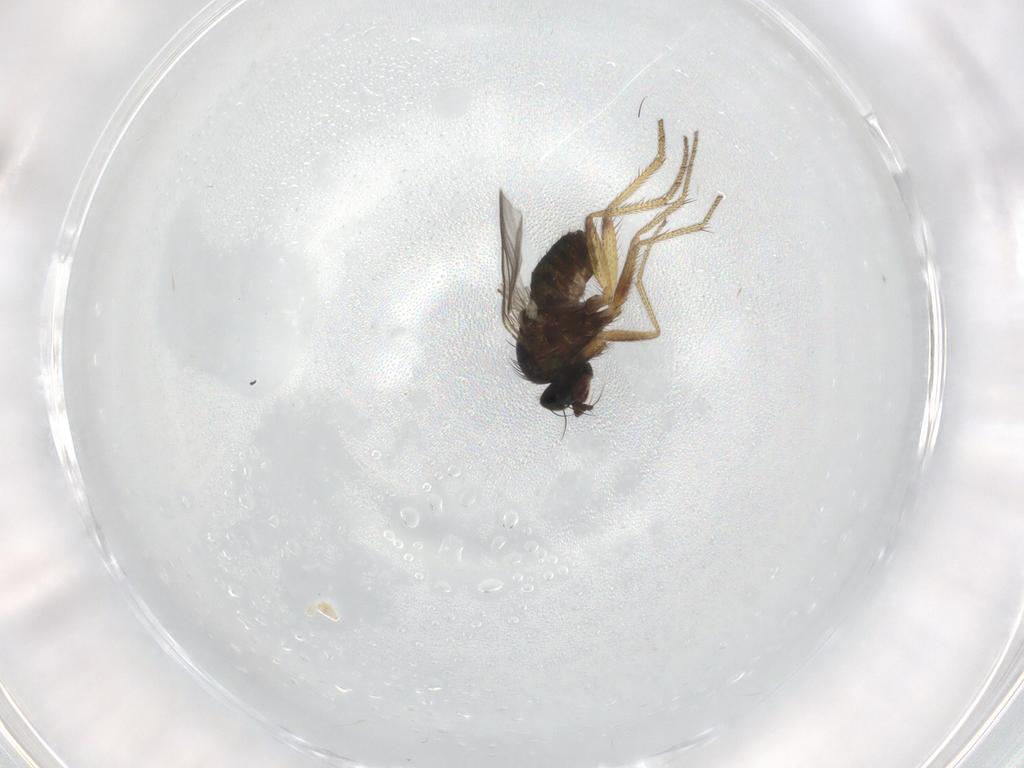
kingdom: Animalia
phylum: Arthropoda
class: Insecta
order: Diptera
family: Dolichopodidae
